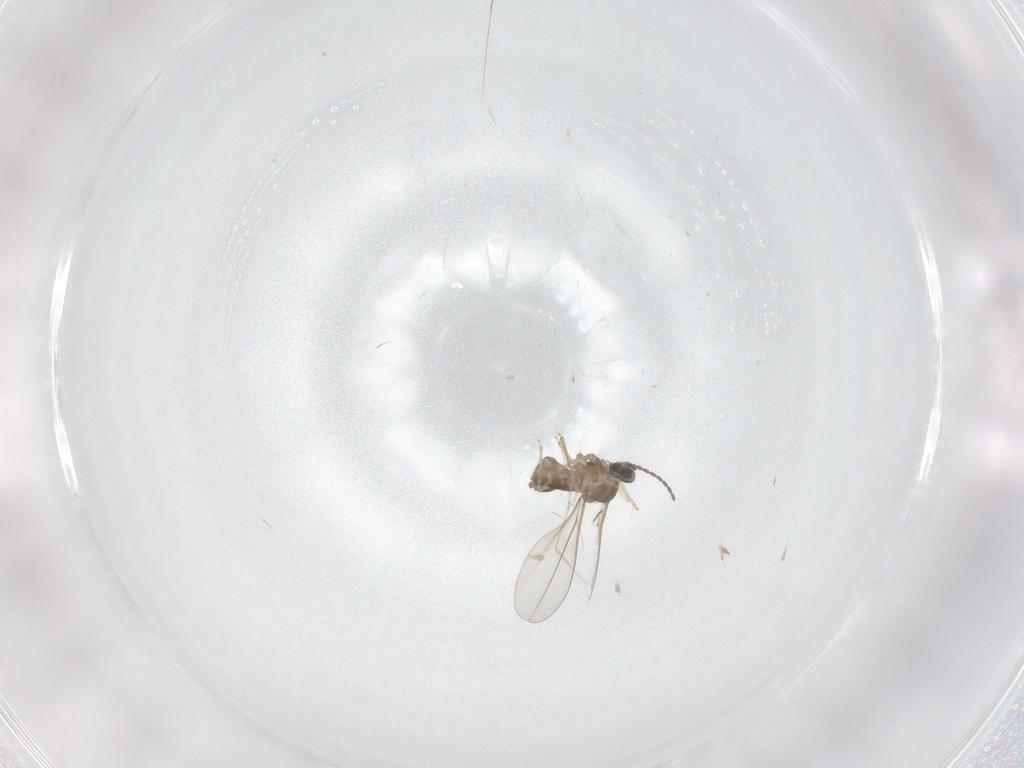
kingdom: Animalia
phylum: Arthropoda
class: Insecta
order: Diptera
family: Cecidomyiidae
